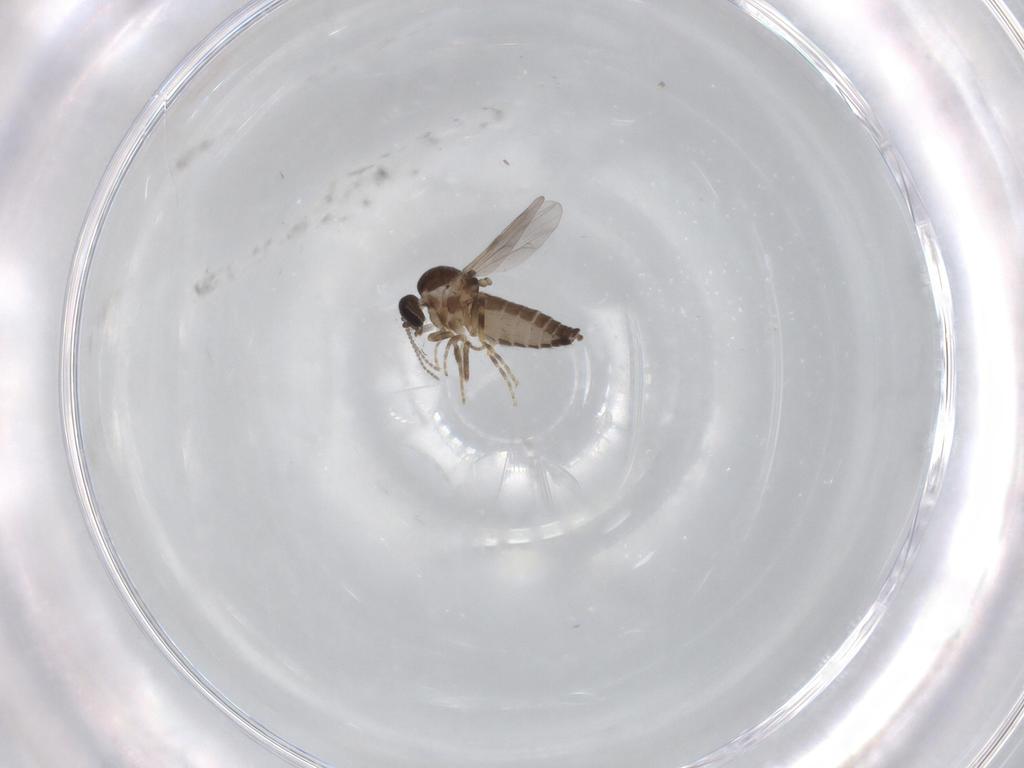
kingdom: Animalia
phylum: Arthropoda
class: Insecta
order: Diptera
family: Ceratopogonidae
